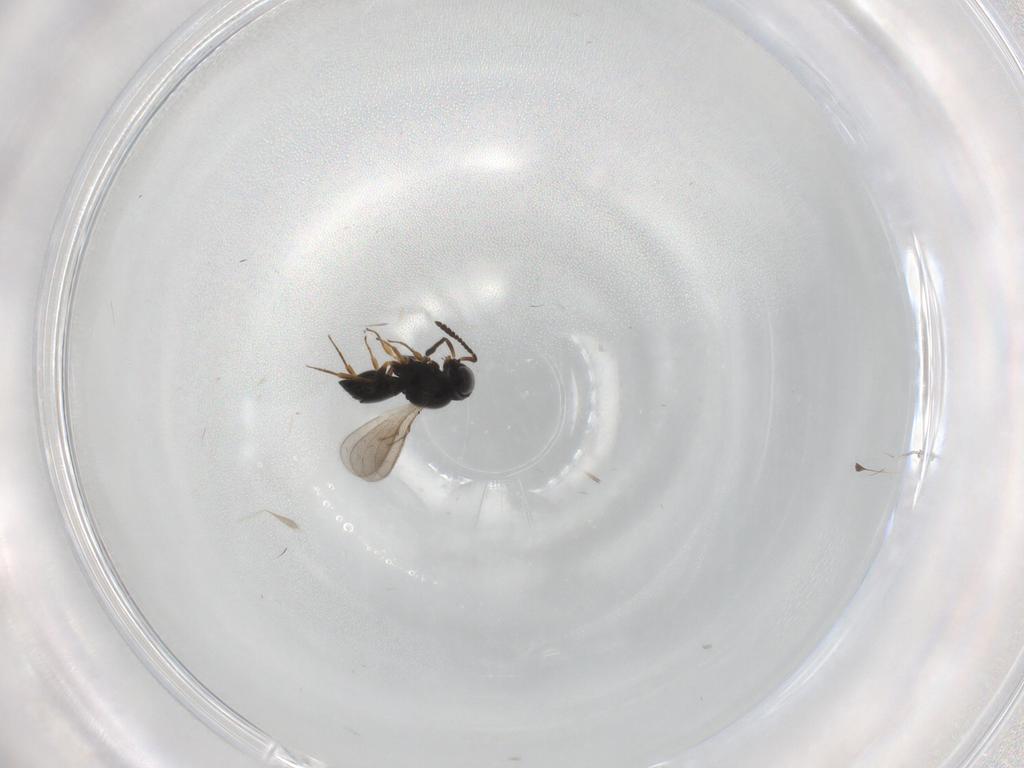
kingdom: Animalia
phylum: Arthropoda
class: Insecta
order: Hymenoptera
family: Scelionidae
